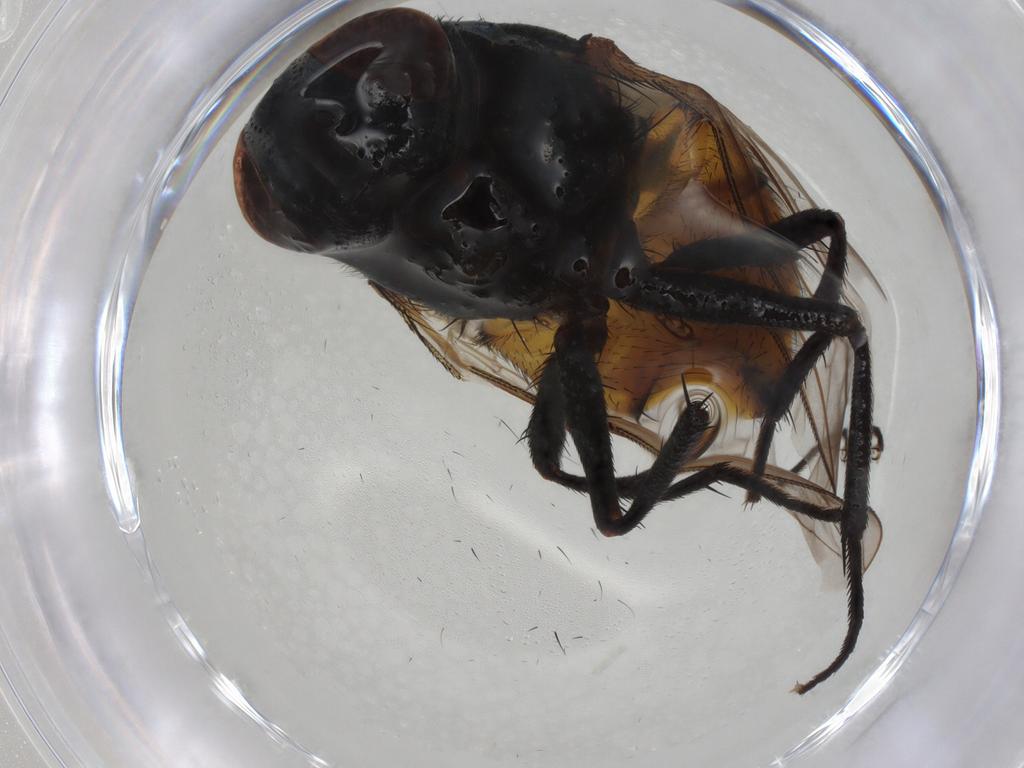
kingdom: Animalia
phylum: Arthropoda
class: Insecta
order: Diptera
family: Muscidae
